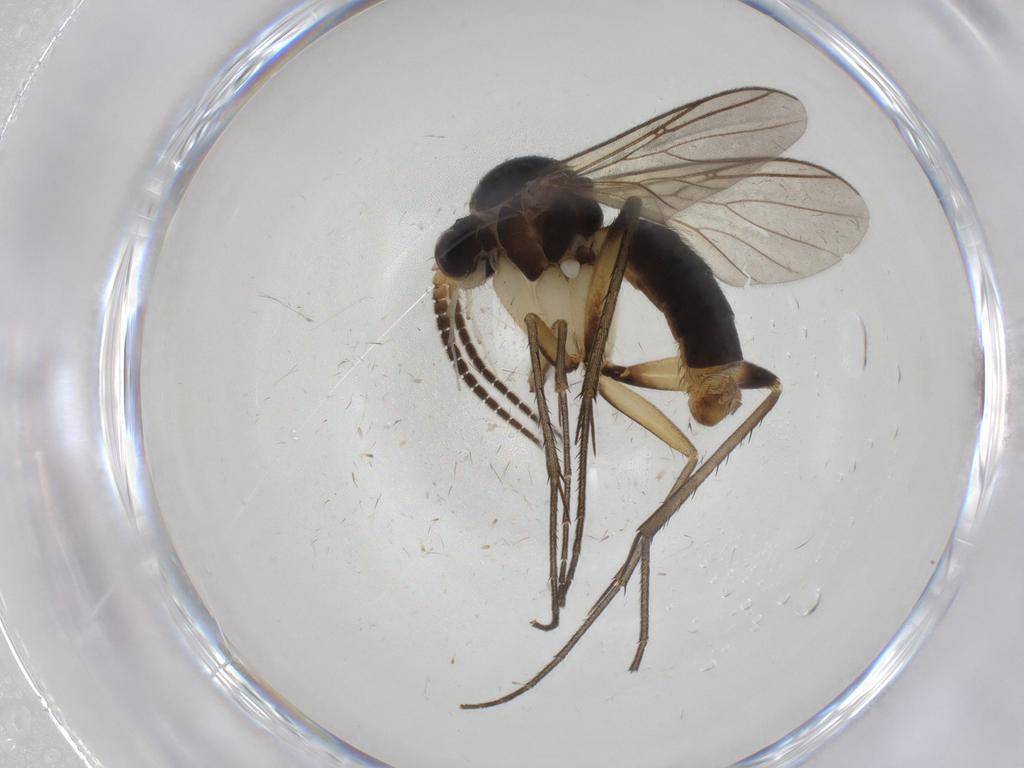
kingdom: Animalia
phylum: Arthropoda
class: Insecta
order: Diptera
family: Mycetophilidae
